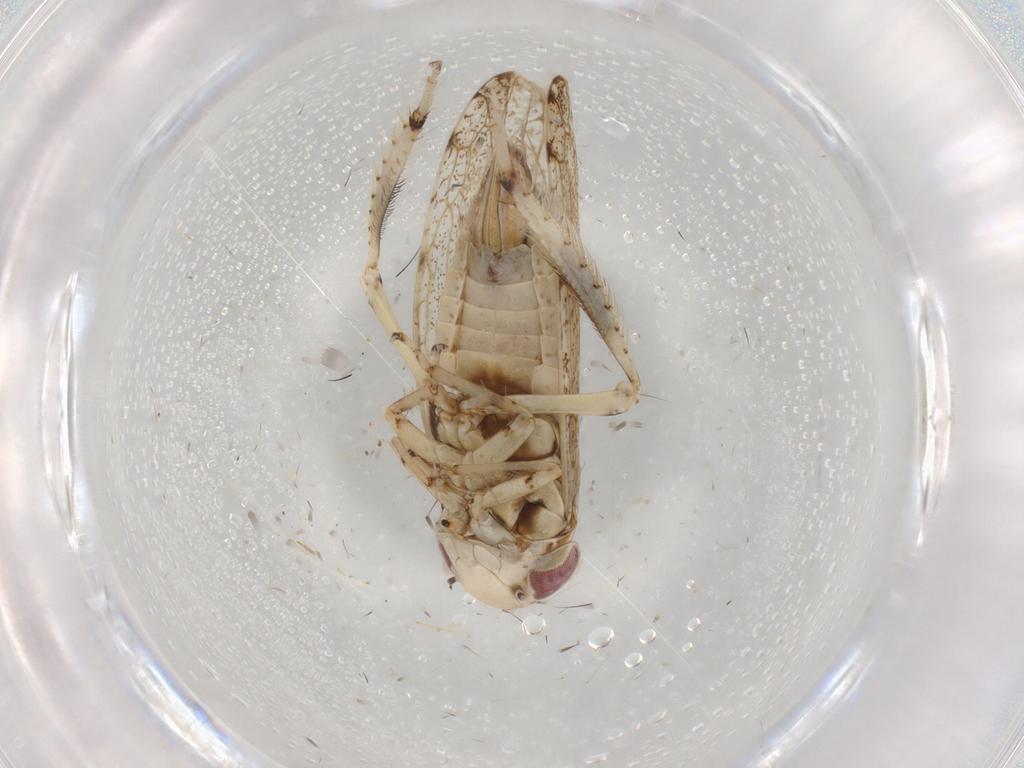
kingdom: Animalia
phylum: Arthropoda
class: Insecta
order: Hemiptera
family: Cicadellidae
